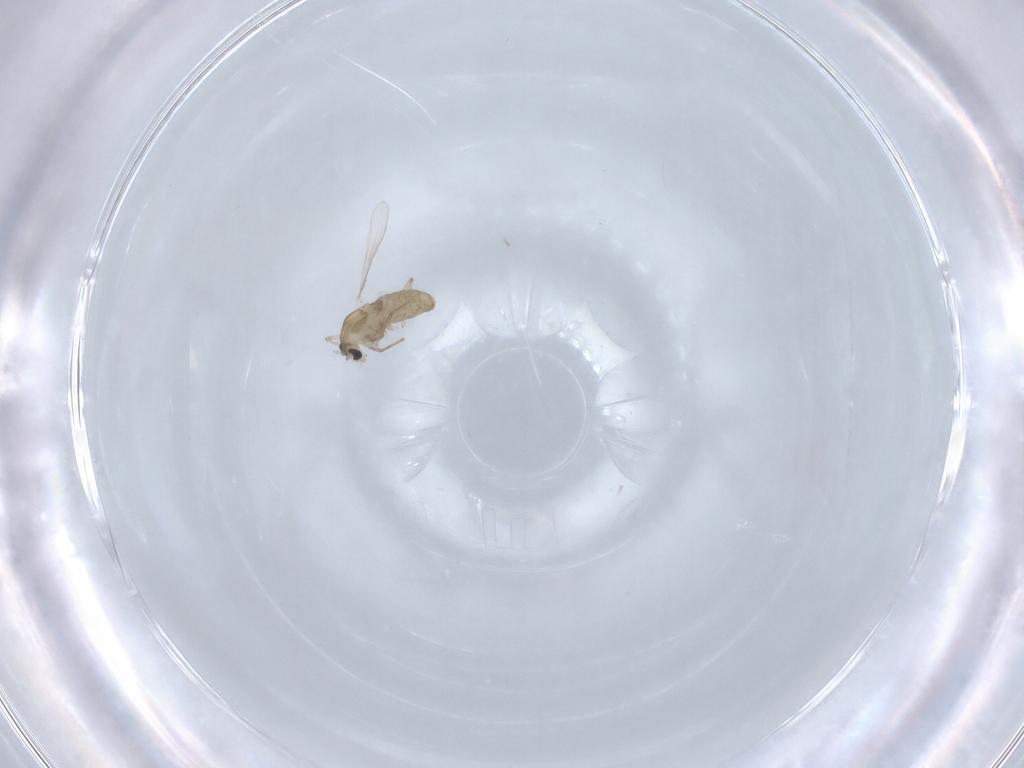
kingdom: Animalia
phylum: Arthropoda
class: Insecta
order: Diptera
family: Chironomidae
